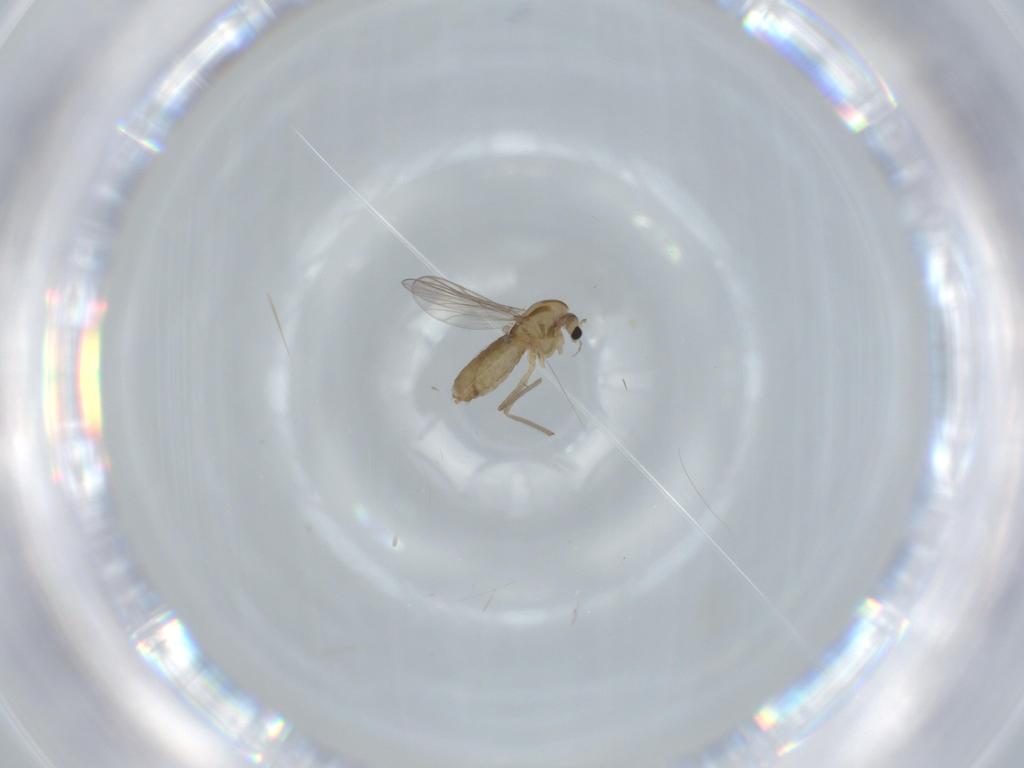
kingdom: Animalia
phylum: Arthropoda
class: Insecta
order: Diptera
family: Chironomidae
